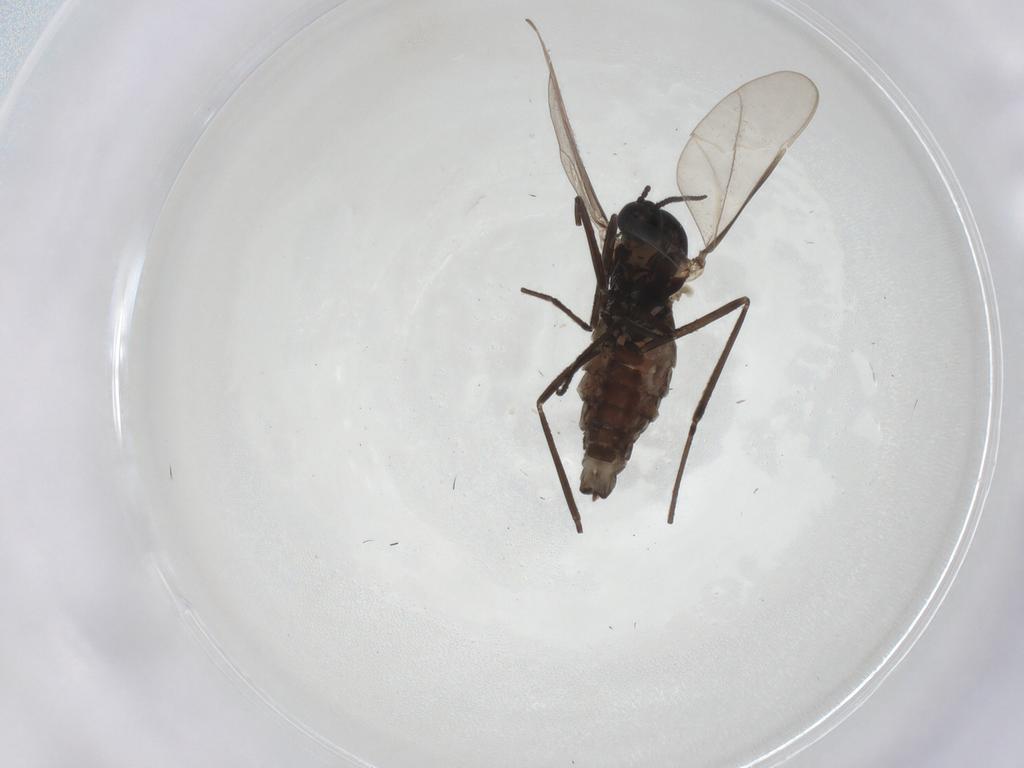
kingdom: Animalia
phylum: Arthropoda
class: Insecta
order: Diptera
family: Cecidomyiidae
